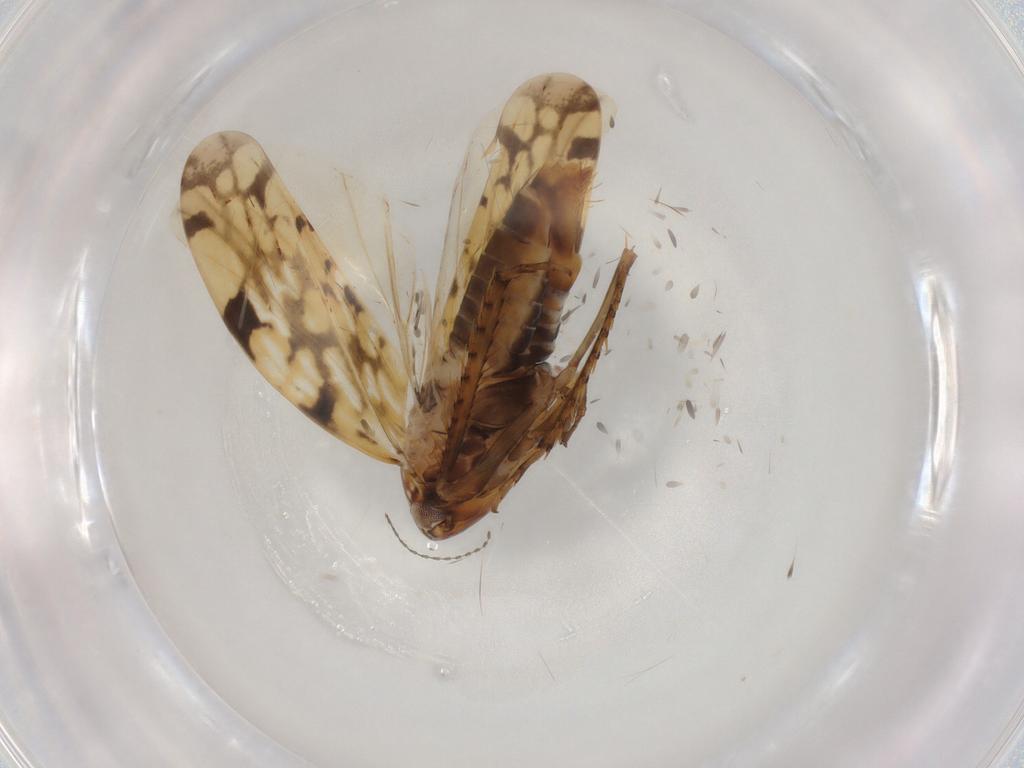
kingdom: Animalia
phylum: Arthropoda
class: Insecta
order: Hemiptera
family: Cicadellidae
